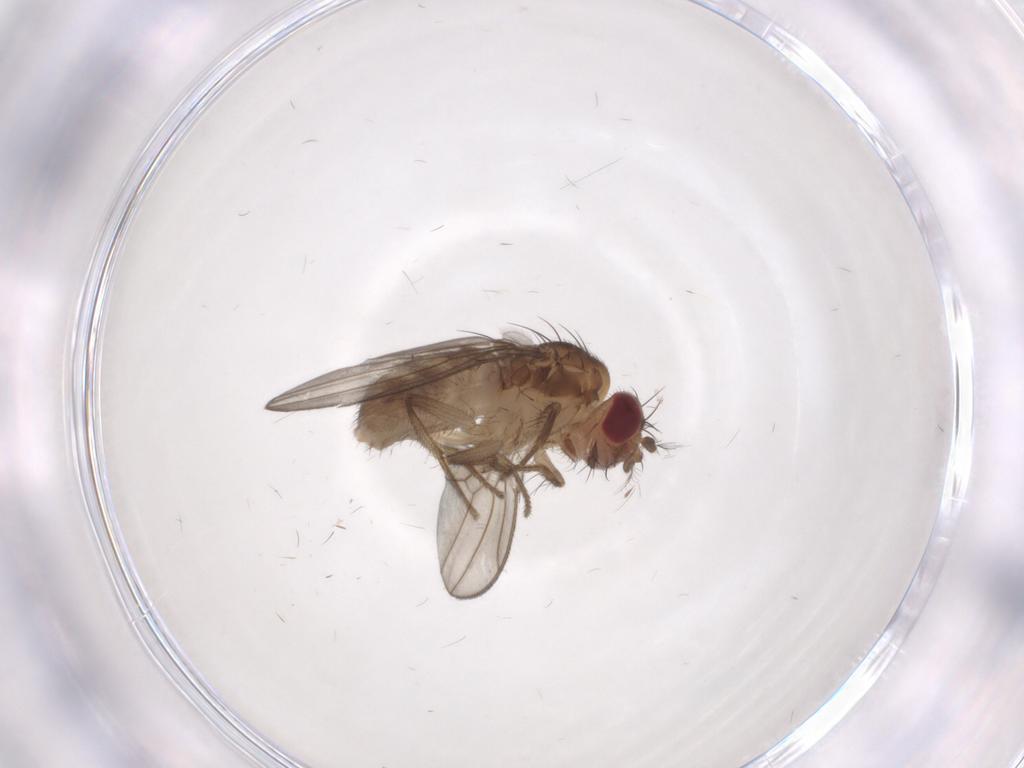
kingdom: Animalia
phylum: Arthropoda
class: Insecta
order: Diptera
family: Drosophilidae
